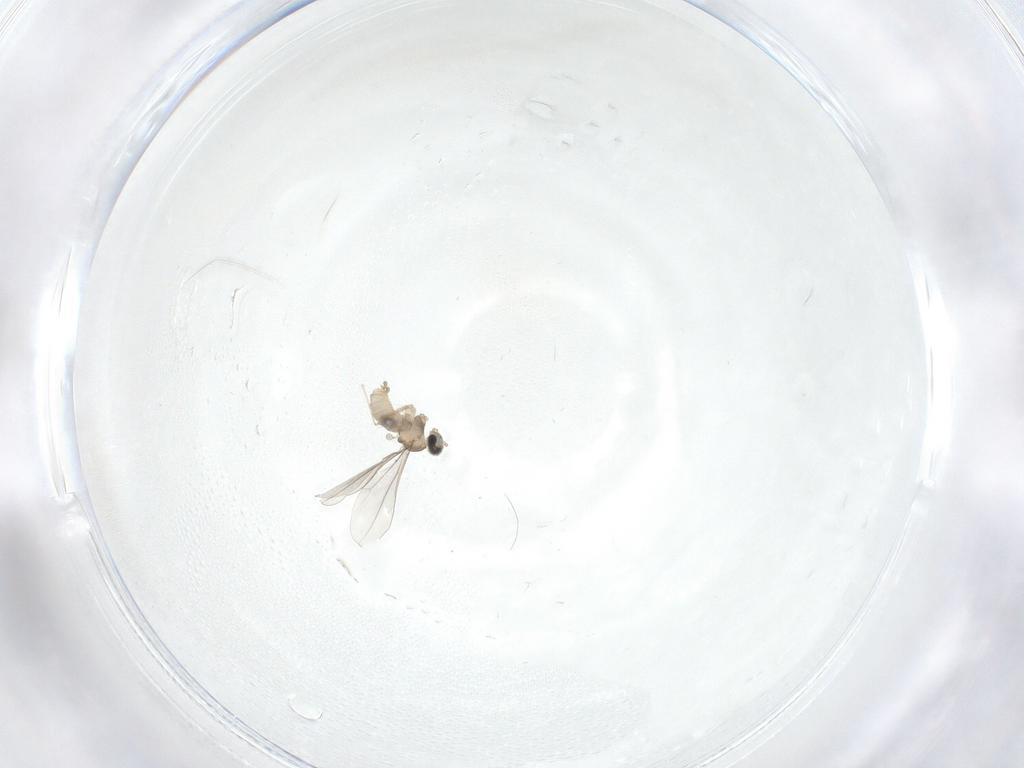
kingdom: Animalia
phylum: Arthropoda
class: Insecta
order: Diptera
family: Cecidomyiidae
